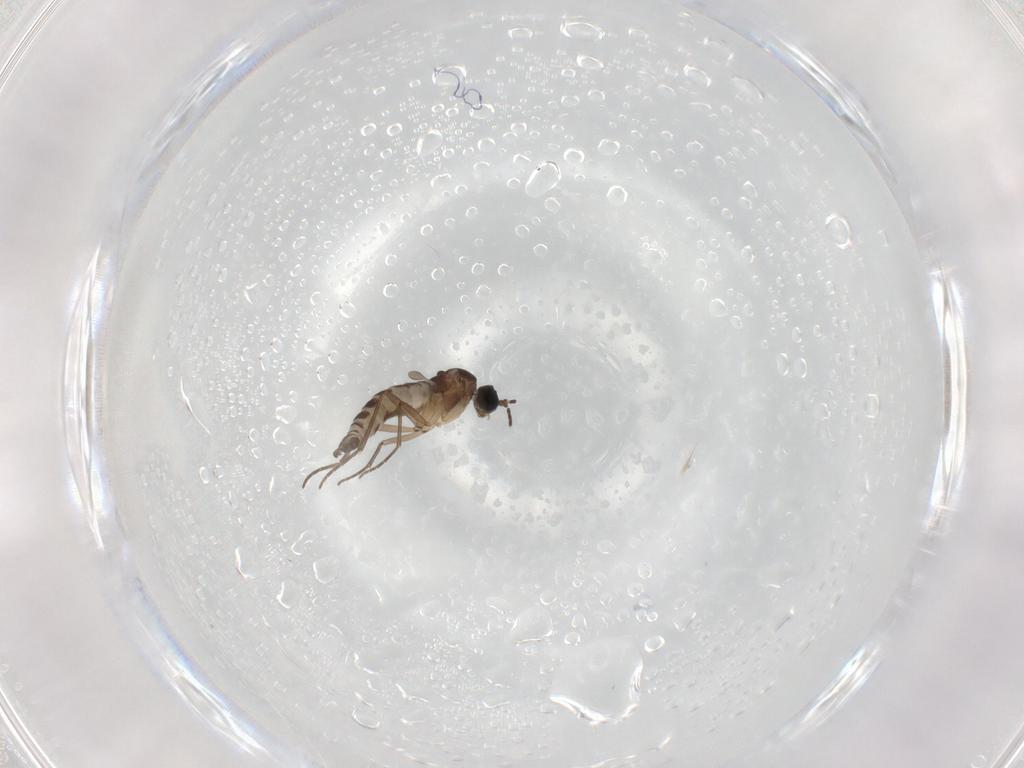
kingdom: Animalia
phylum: Arthropoda
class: Insecta
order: Diptera
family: Sciaridae
